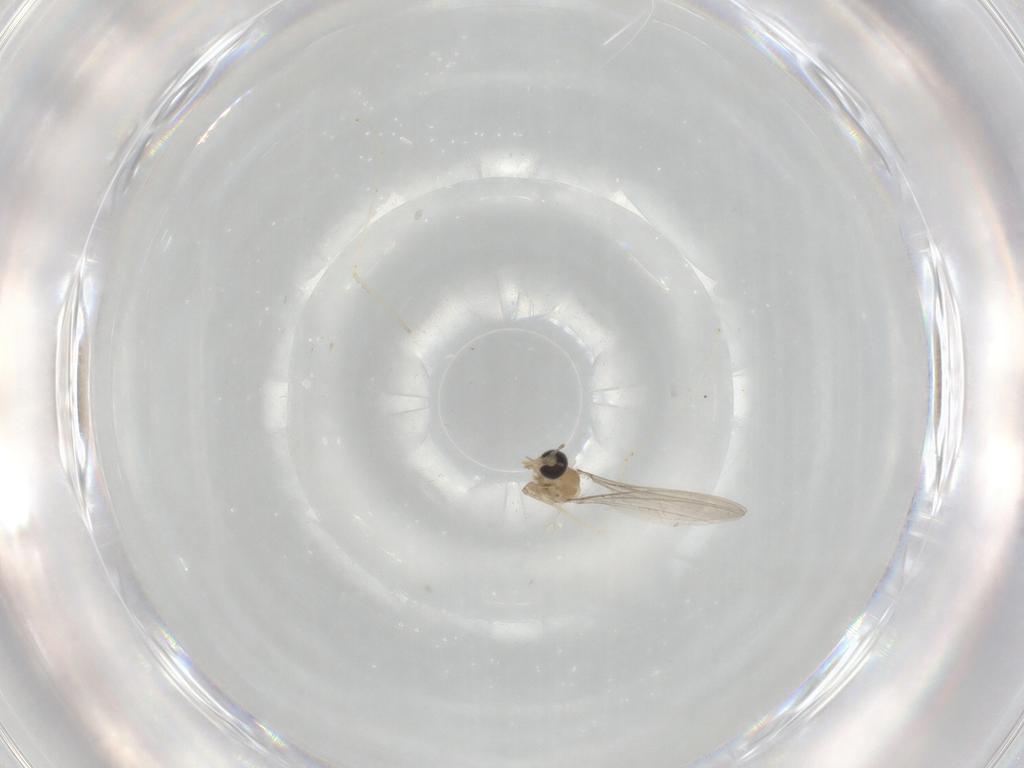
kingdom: Animalia
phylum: Arthropoda
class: Insecta
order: Diptera
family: Cecidomyiidae
